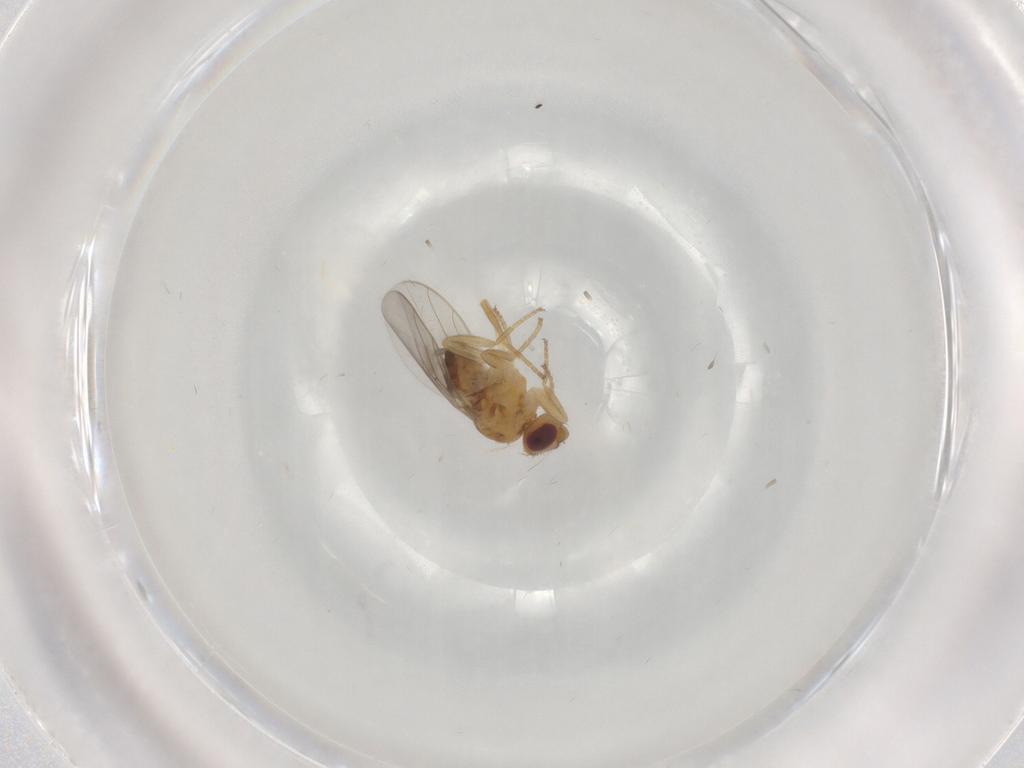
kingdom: Animalia
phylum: Arthropoda
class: Insecta
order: Diptera
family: Chloropidae
